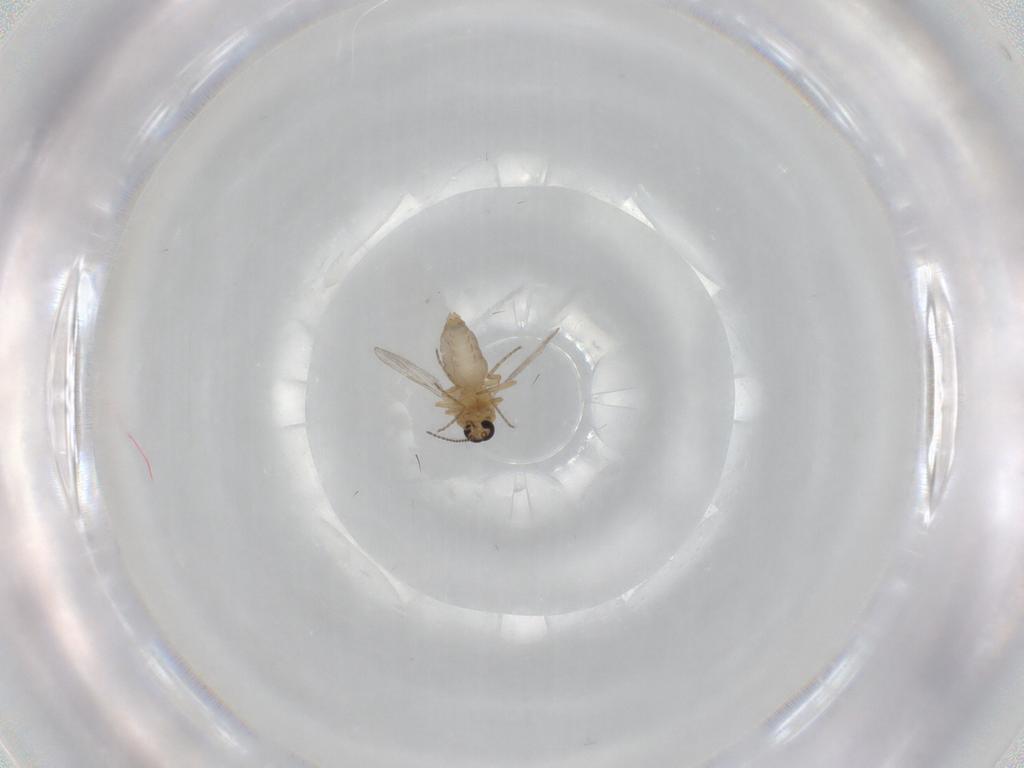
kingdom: Animalia
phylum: Arthropoda
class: Insecta
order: Diptera
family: Ceratopogonidae
